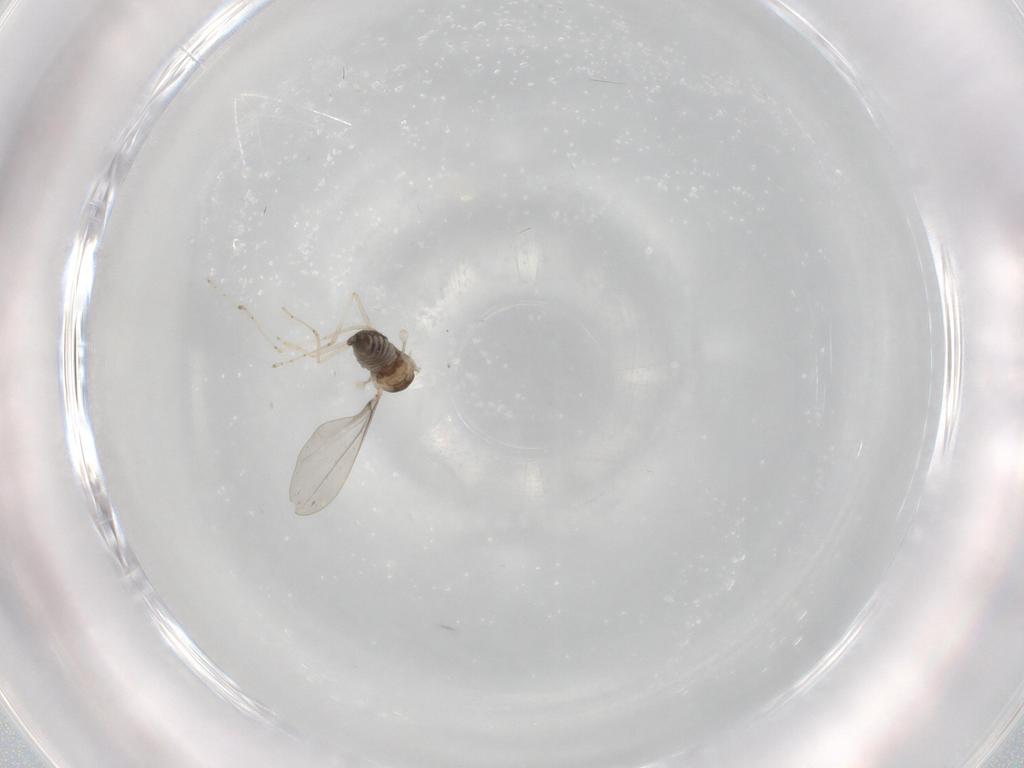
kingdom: Animalia
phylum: Arthropoda
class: Insecta
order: Diptera
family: Cecidomyiidae
